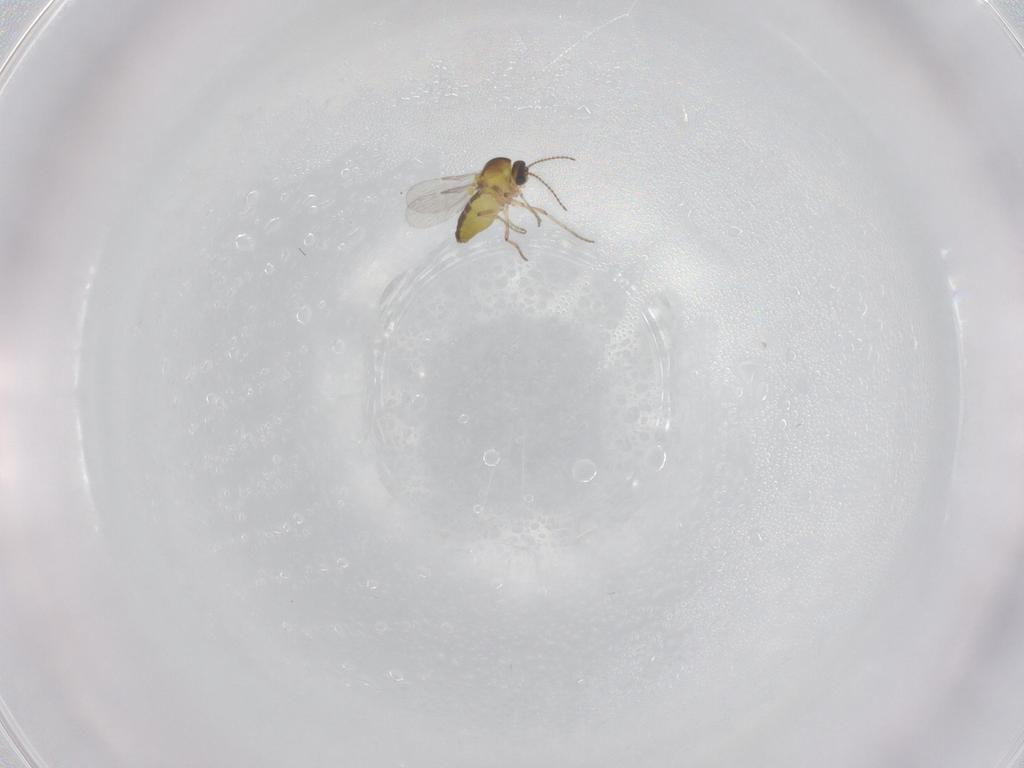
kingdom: Animalia
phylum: Arthropoda
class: Insecta
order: Diptera
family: Ceratopogonidae
